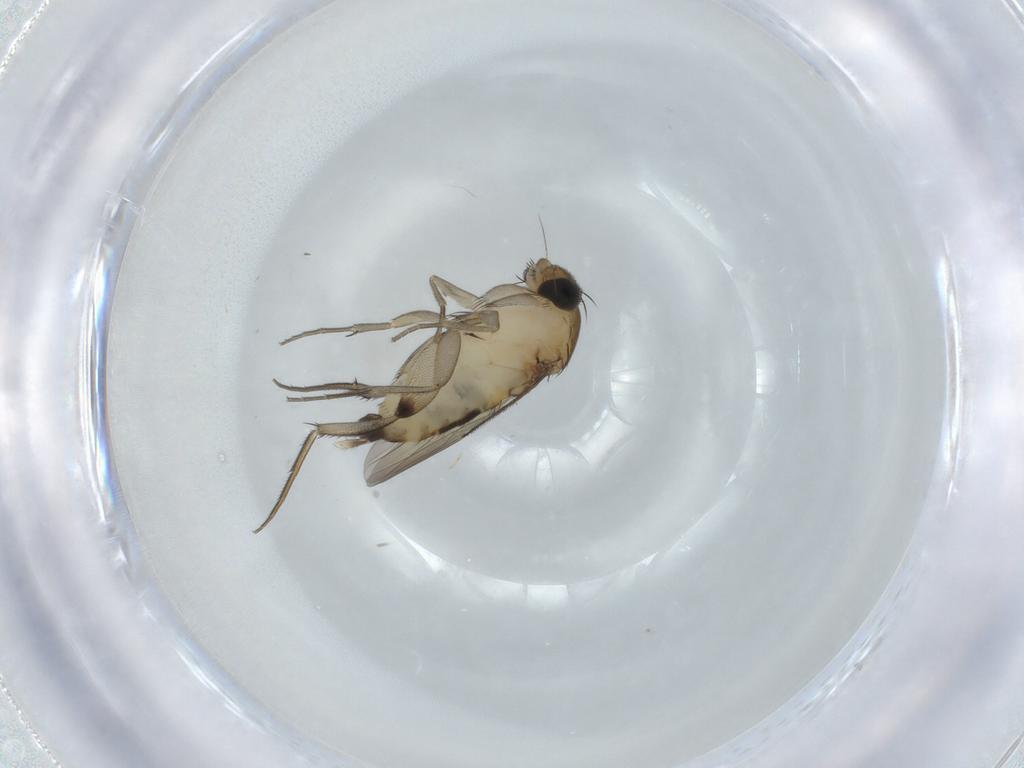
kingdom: Animalia
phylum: Arthropoda
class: Insecta
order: Diptera
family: Phoridae
